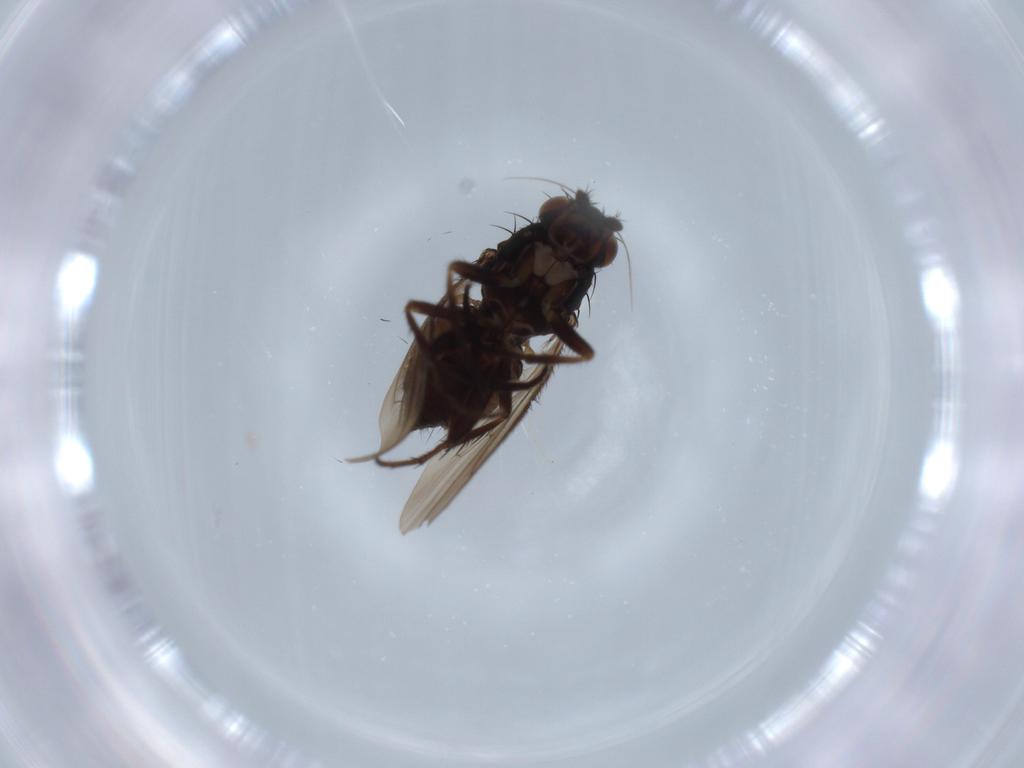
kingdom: Animalia
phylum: Arthropoda
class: Insecta
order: Diptera
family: Sphaeroceridae
